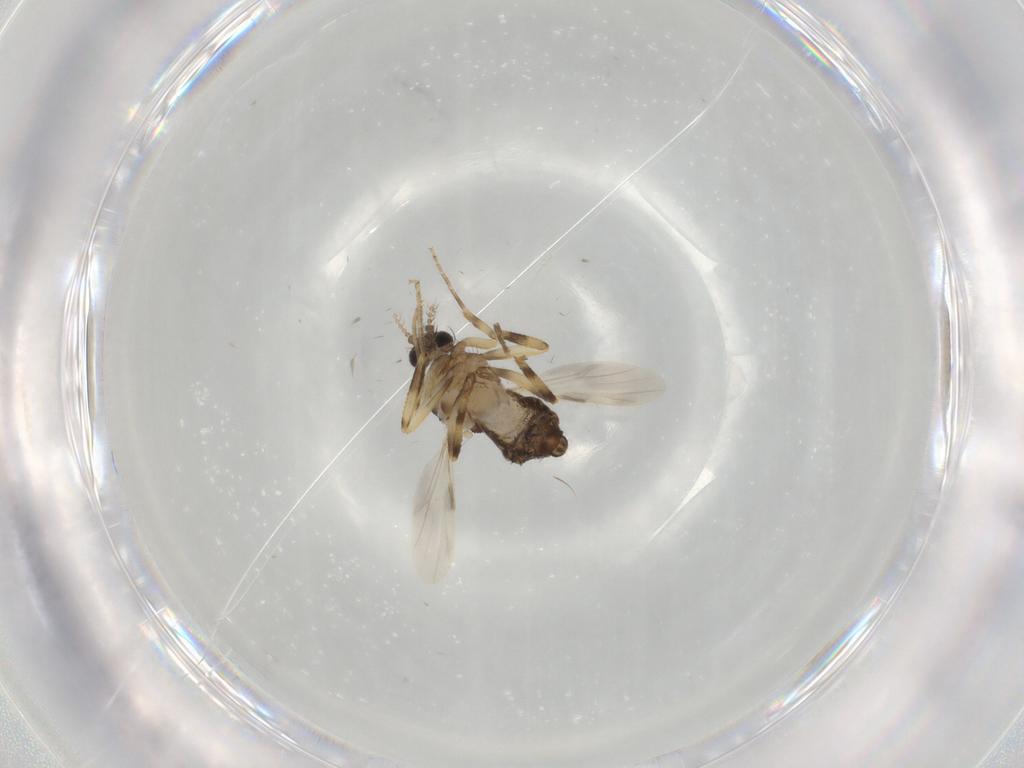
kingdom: Animalia
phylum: Arthropoda
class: Insecta
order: Diptera
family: Ceratopogonidae
